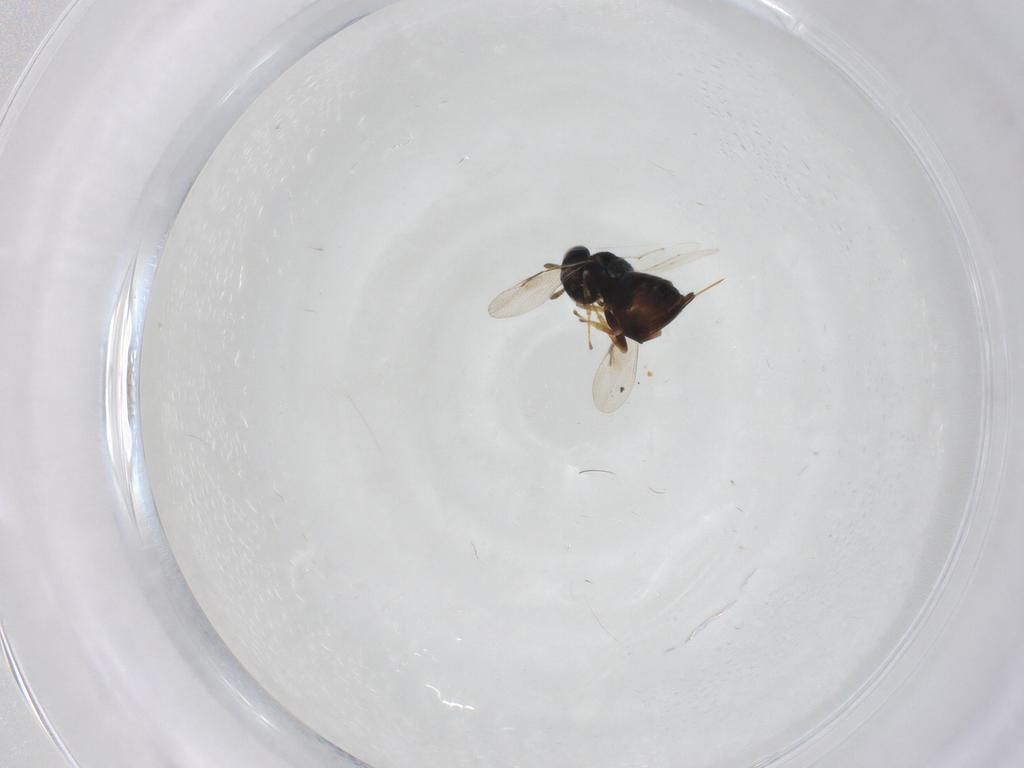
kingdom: Animalia
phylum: Arthropoda
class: Insecta
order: Hymenoptera
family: Pteromalidae
